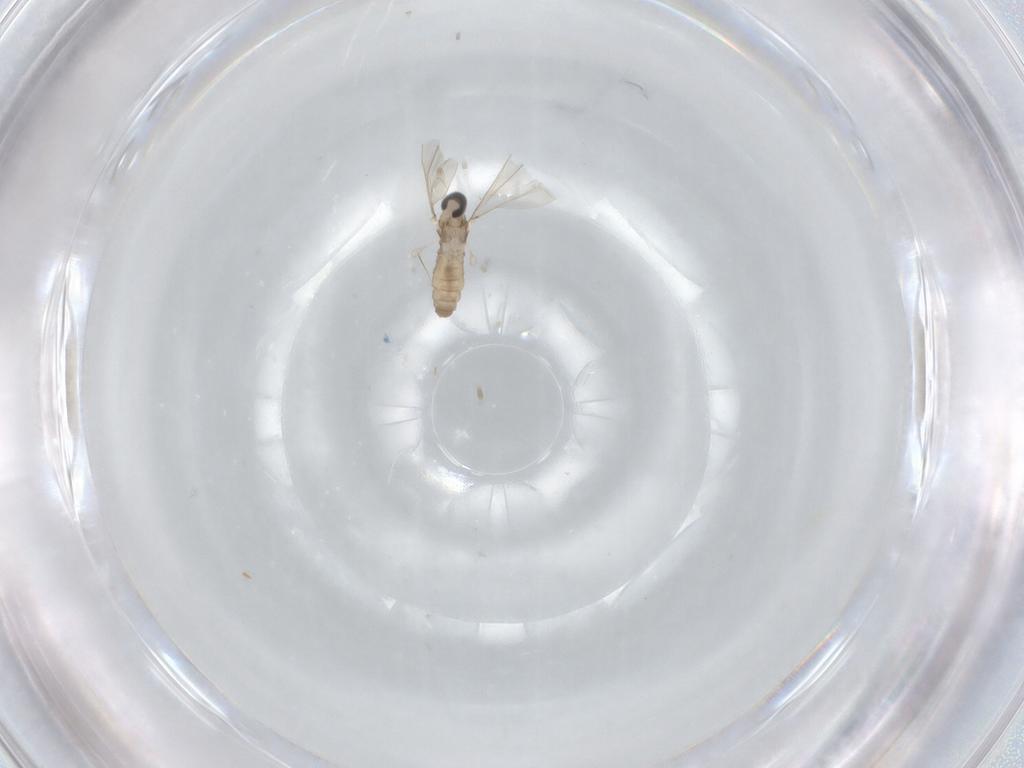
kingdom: Animalia
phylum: Arthropoda
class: Insecta
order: Diptera
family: Cecidomyiidae
